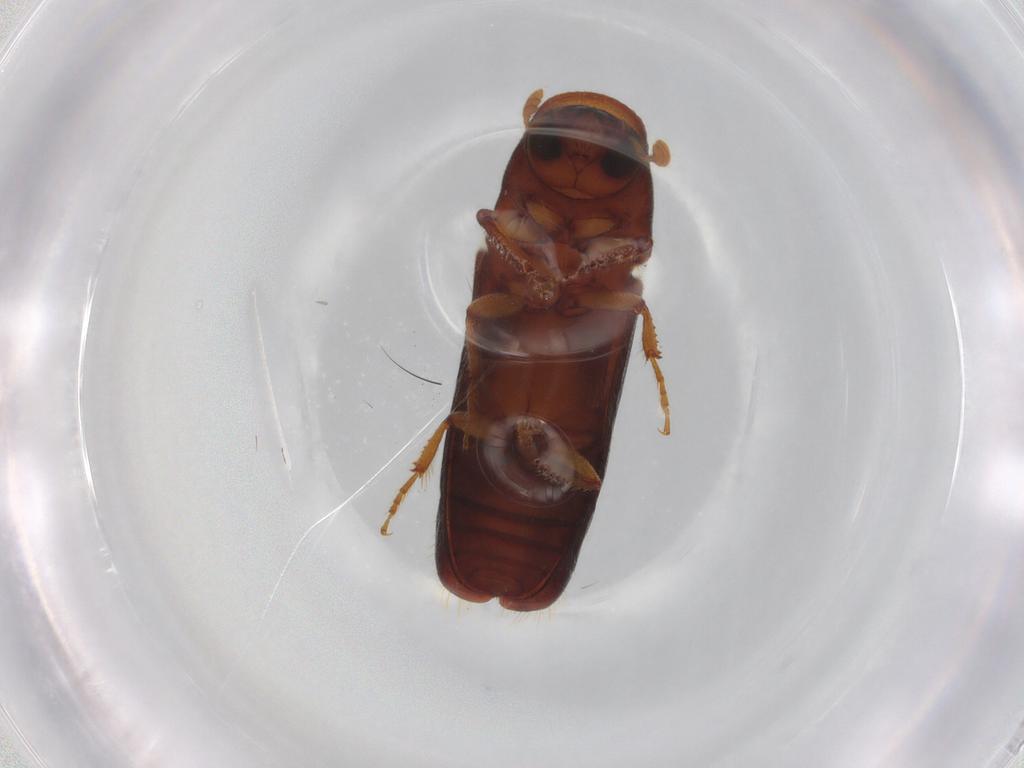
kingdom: Animalia
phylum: Arthropoda
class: Insecta
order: Coleoptera
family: Curculionidae
